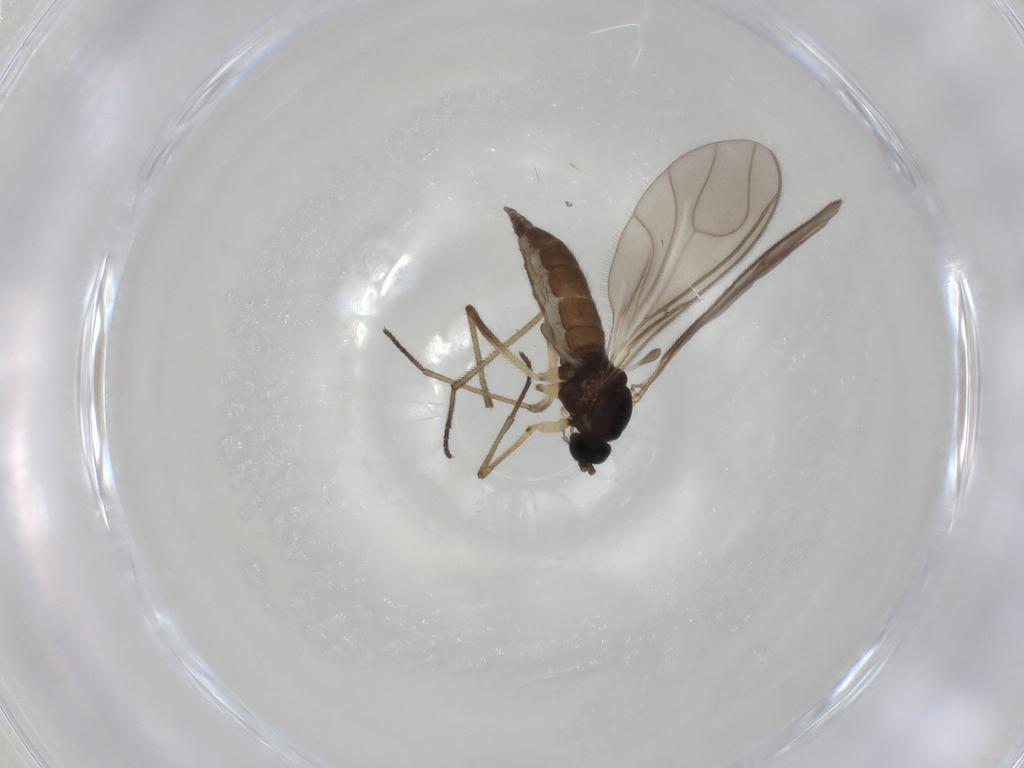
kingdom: Animalia
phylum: Arthropoda
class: Insecta
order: Diptera
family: Sciaridae
